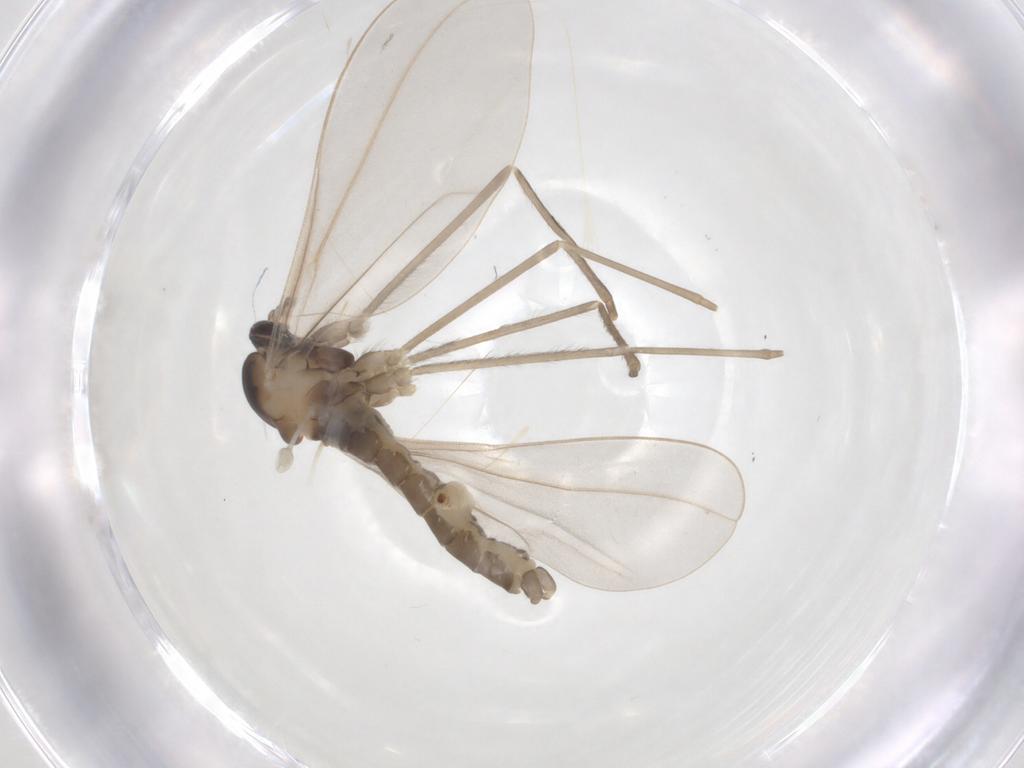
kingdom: Animalia
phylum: Arthropoda
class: Insecta
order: Diptera
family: Cecidomyiidae
